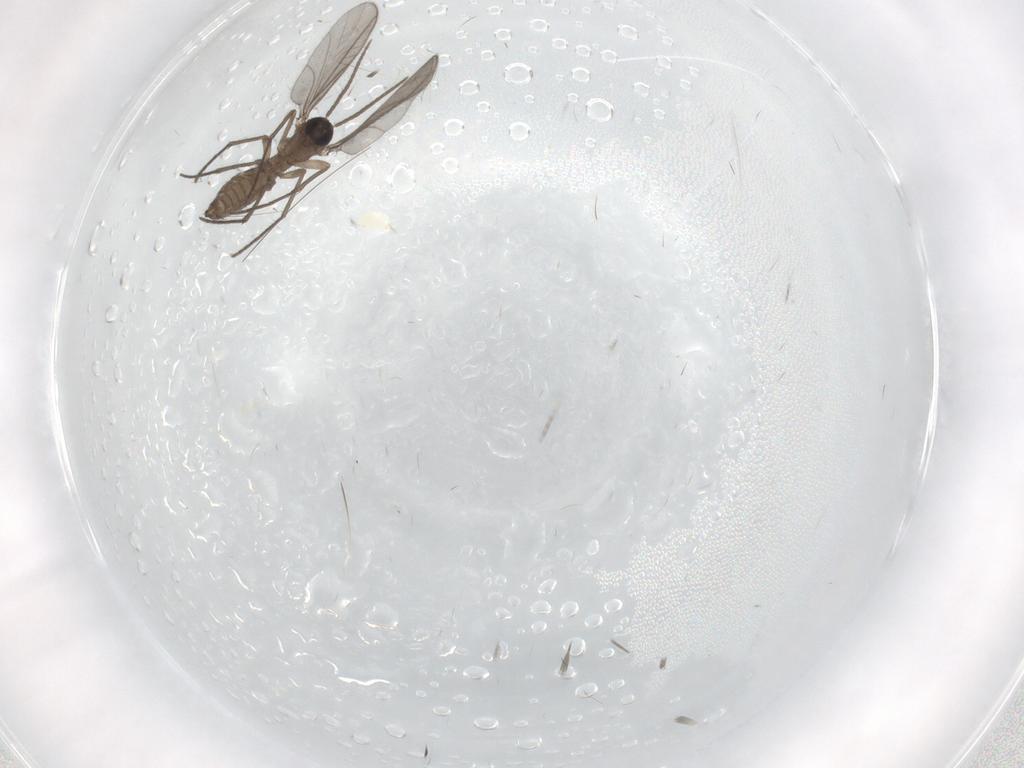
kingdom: Animalia
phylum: Arthropoda
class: Insecta
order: Diptera
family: Sciaridae
